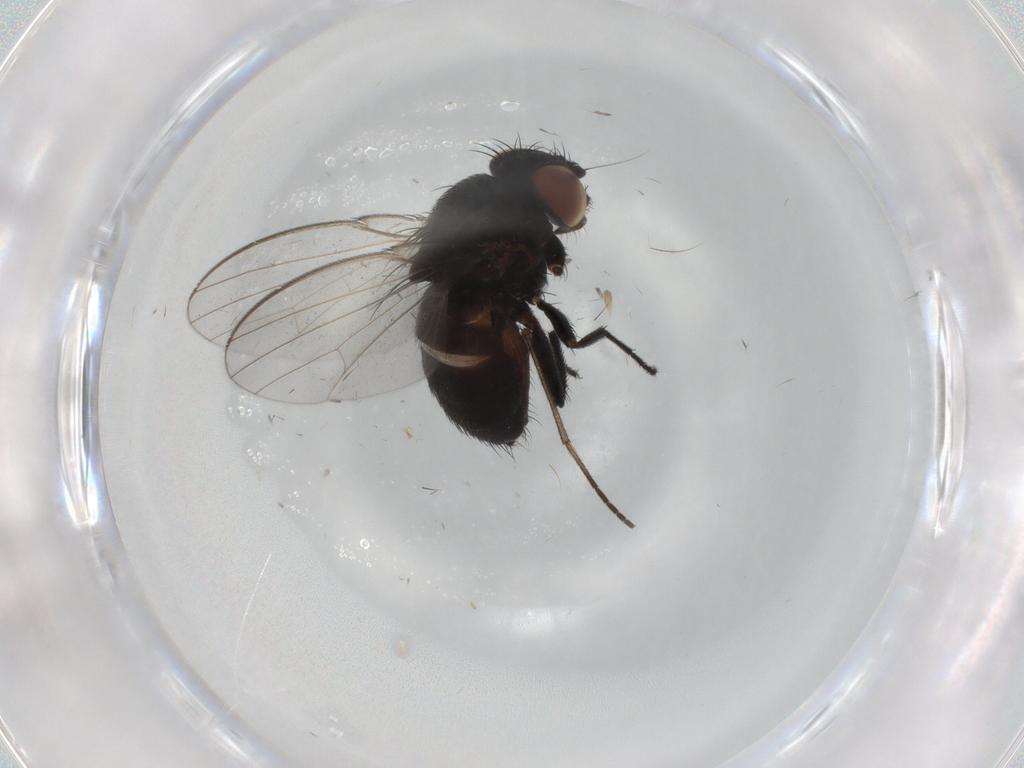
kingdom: Animalia
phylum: Arthropoda
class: Insecta
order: Diptera
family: Milichiidae
